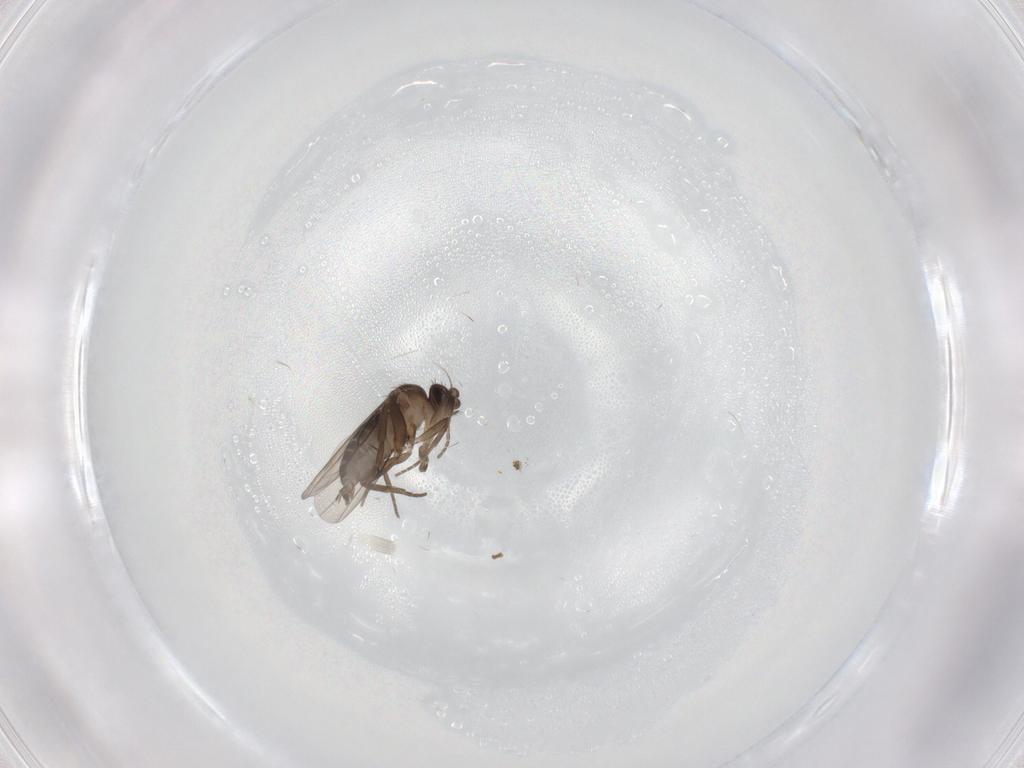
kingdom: Animalia
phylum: Arthropoda
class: Insecta
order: Diptera
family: Phoridae
